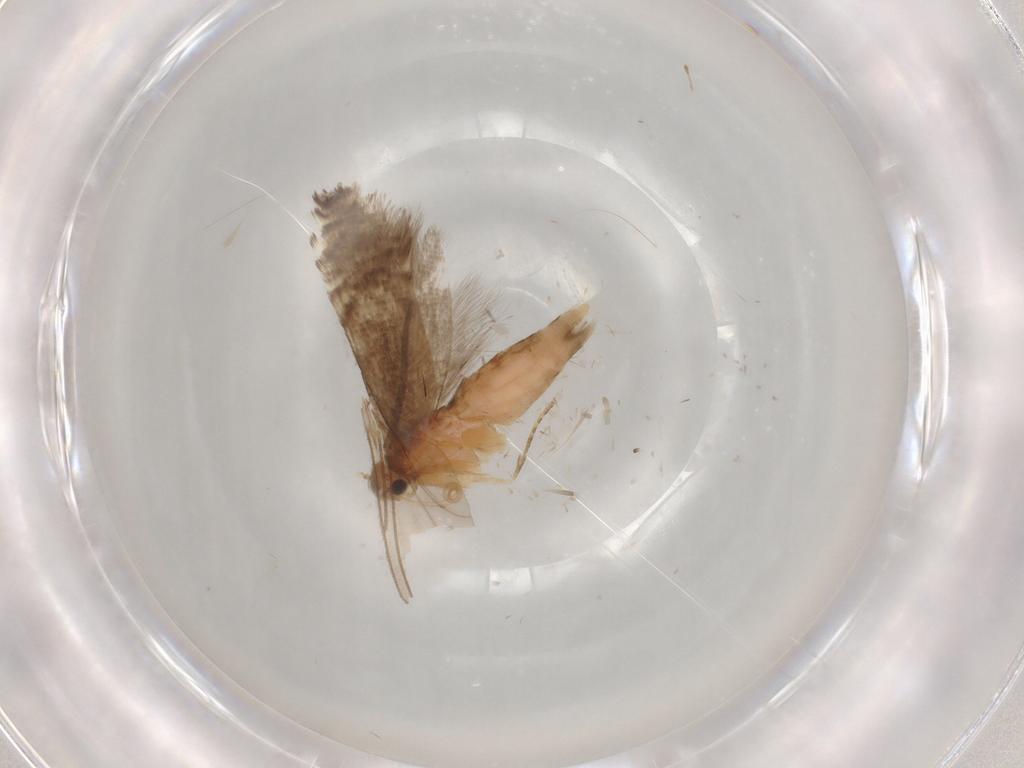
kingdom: Animalia
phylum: Arthropoda
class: Insecta
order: Lepidoptera
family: Glyphipterigidae
